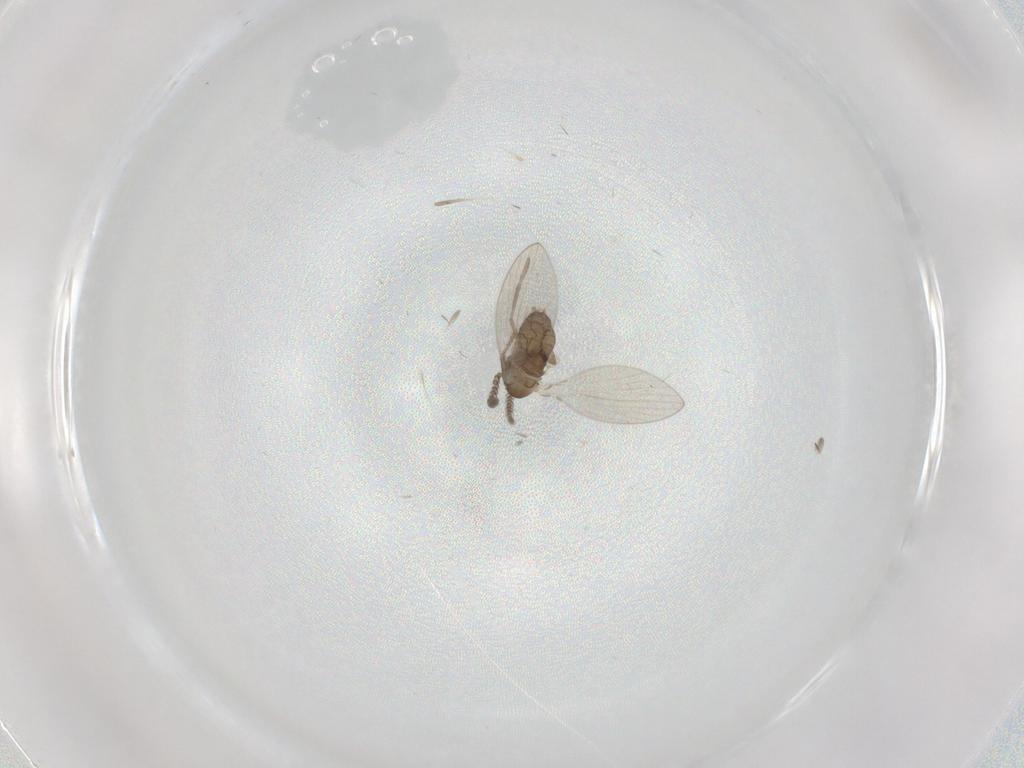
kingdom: Animalia
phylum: Arthropoda
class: Insecta
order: Diptera
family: Psychodidae
